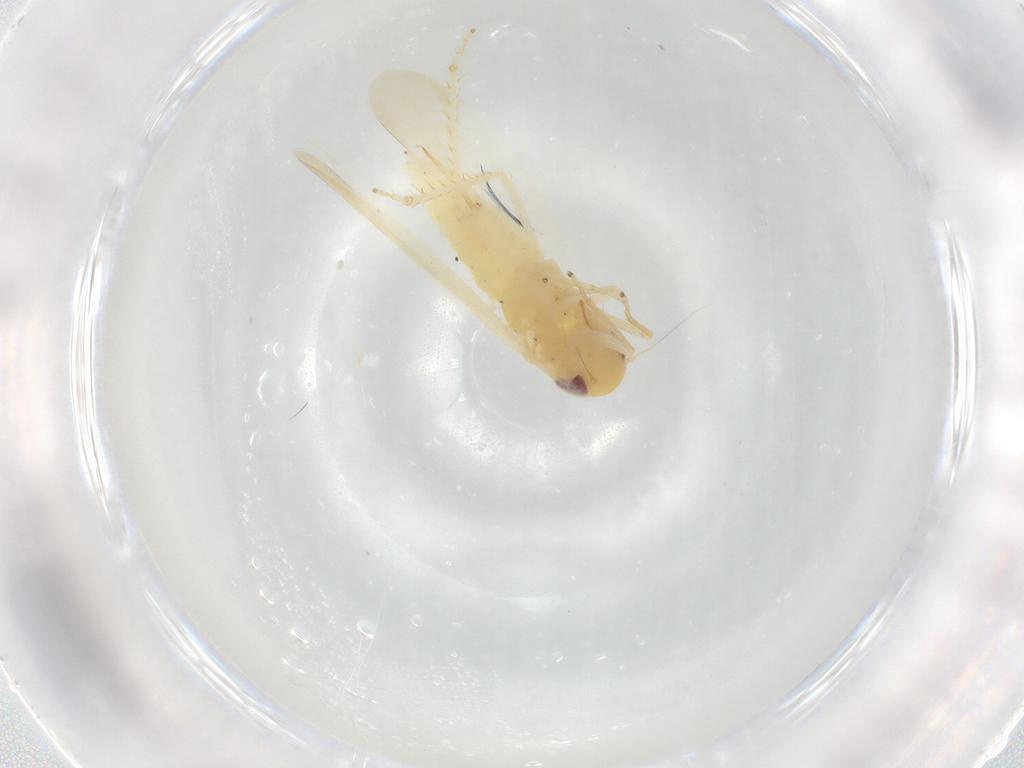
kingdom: Animalia
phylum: Arthropoda
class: Insecta
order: Hemiptera
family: Cicadellidae
